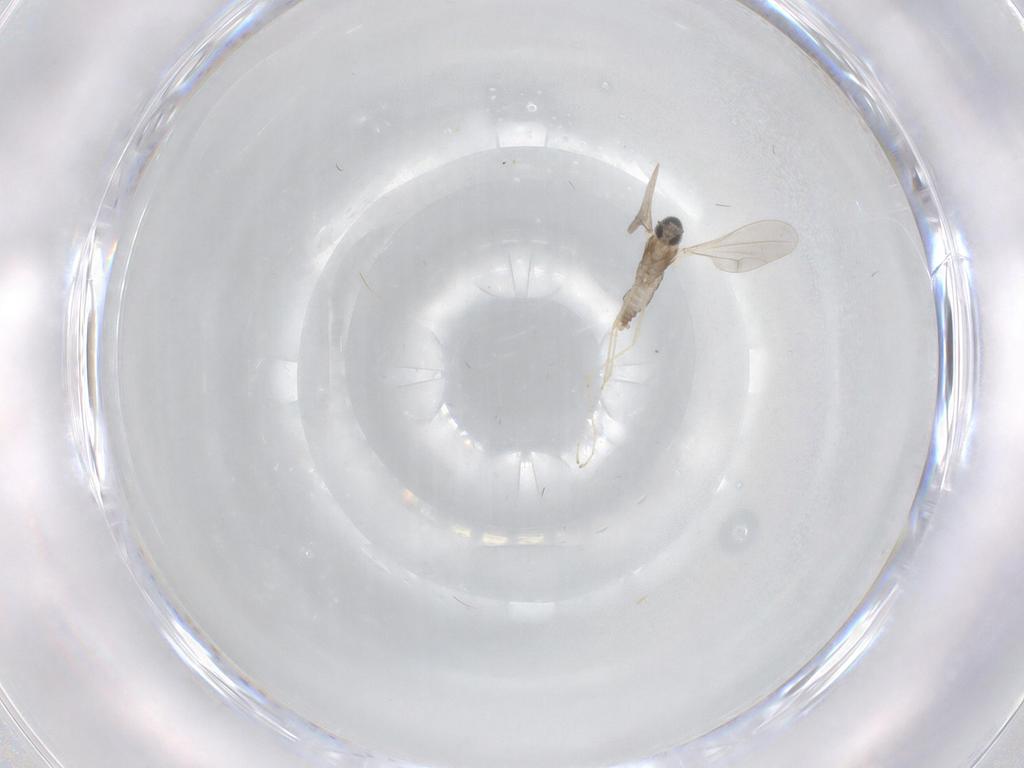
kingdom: Animalia
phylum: Arthropoda
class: Insecta
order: Diptera
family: Cecidomyiidae
